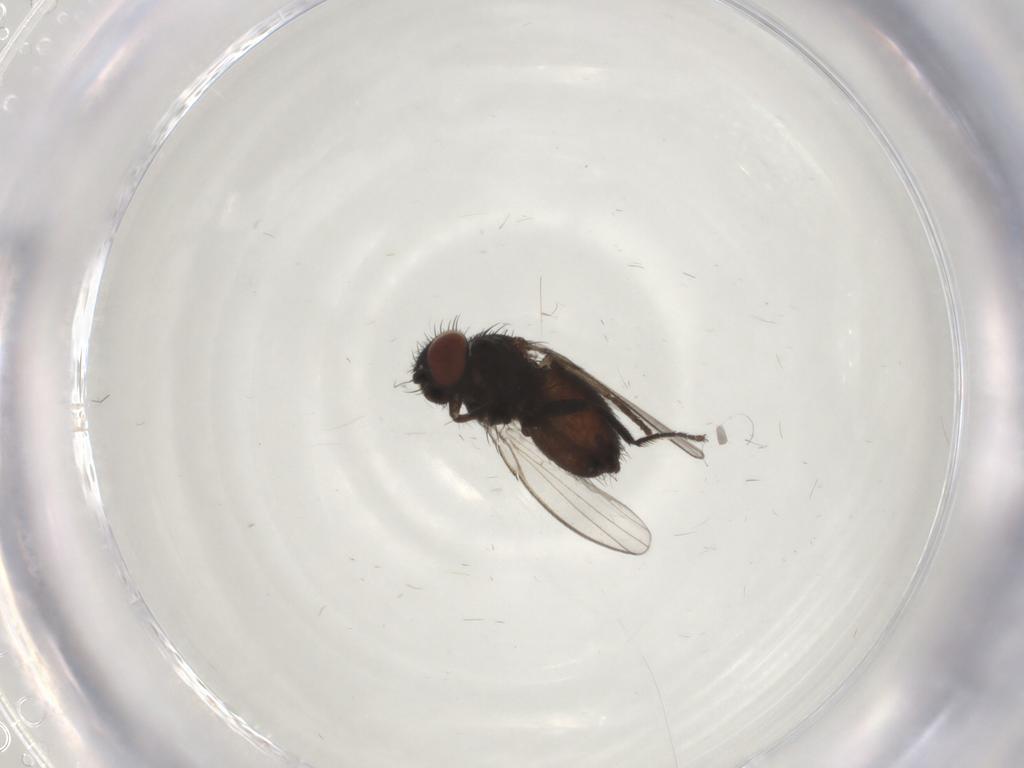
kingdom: Animalia
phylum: Arthropoda
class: Insecta
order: Diptera
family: Milichiidae
